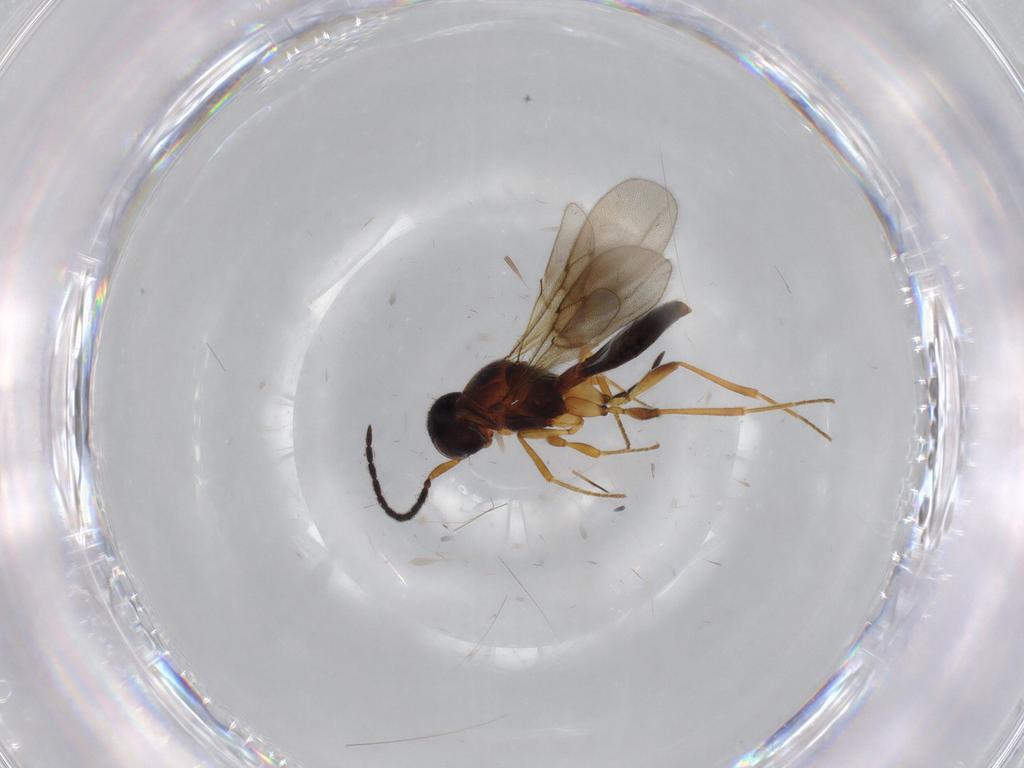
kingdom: Animalia
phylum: Arthropoda
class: Insecta
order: Hymenoptera
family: Scelionidae
